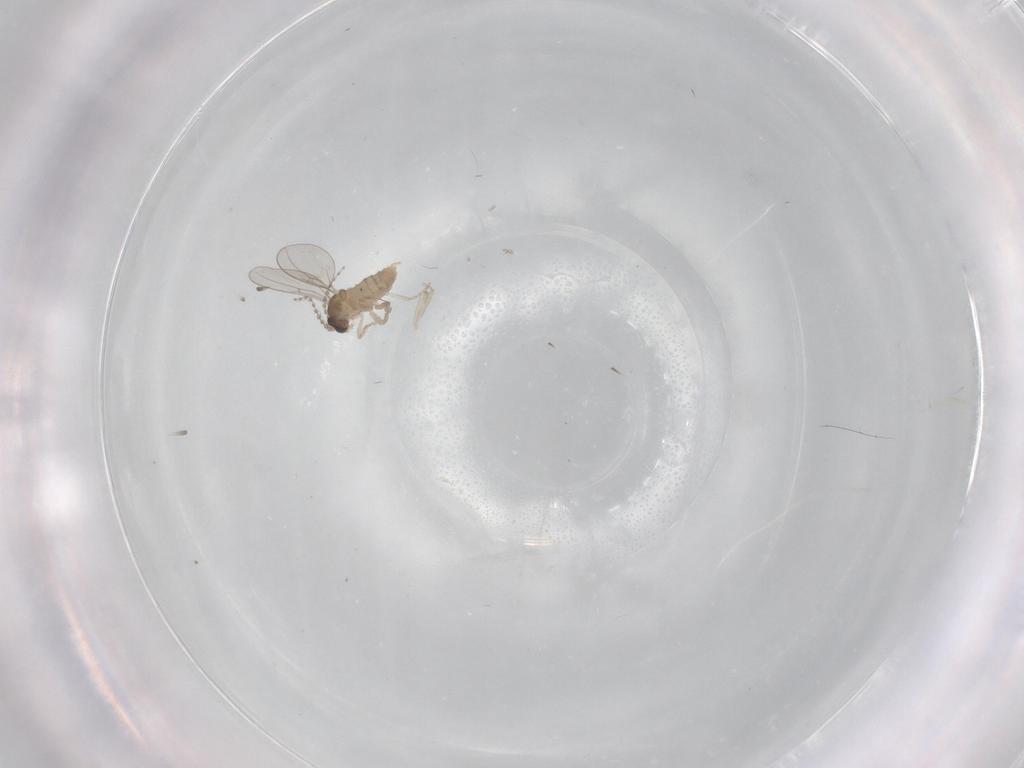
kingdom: Animalia
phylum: Arthropoda
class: Insecta
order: Diptera
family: Cecidomyiidae
